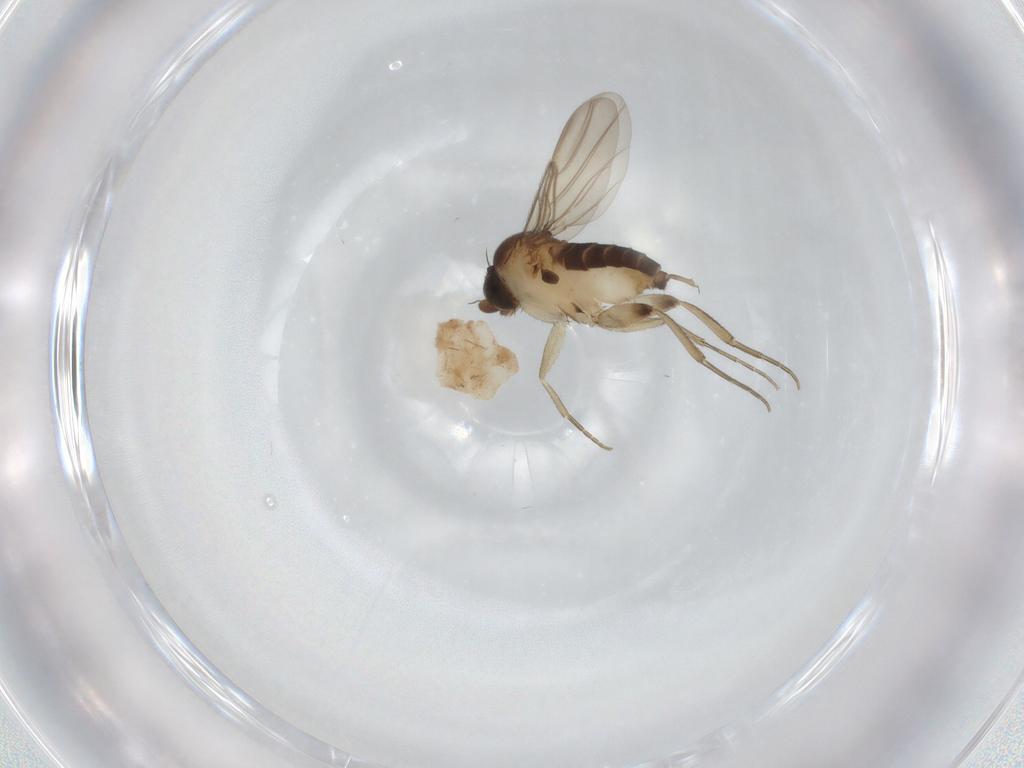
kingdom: Animalia
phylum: Arthropoda
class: Insecta
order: Diptera
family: Phoridae
